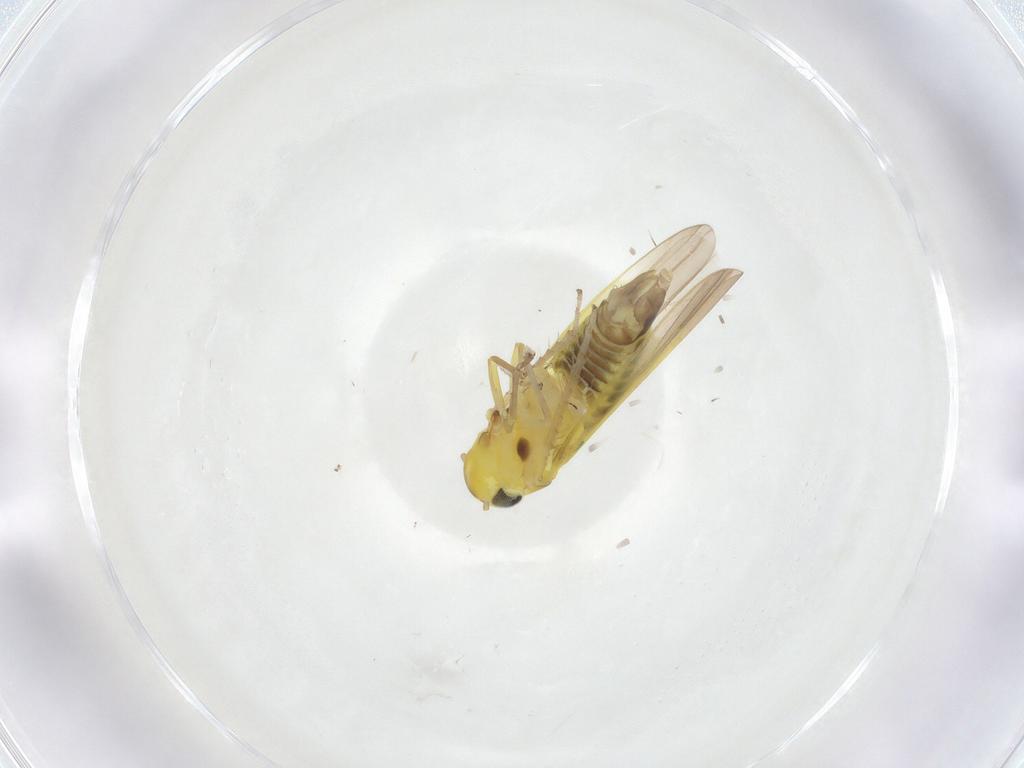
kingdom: Animalia
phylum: Arthropoda
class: Insecta
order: Hemiptera
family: Cicadellidae
